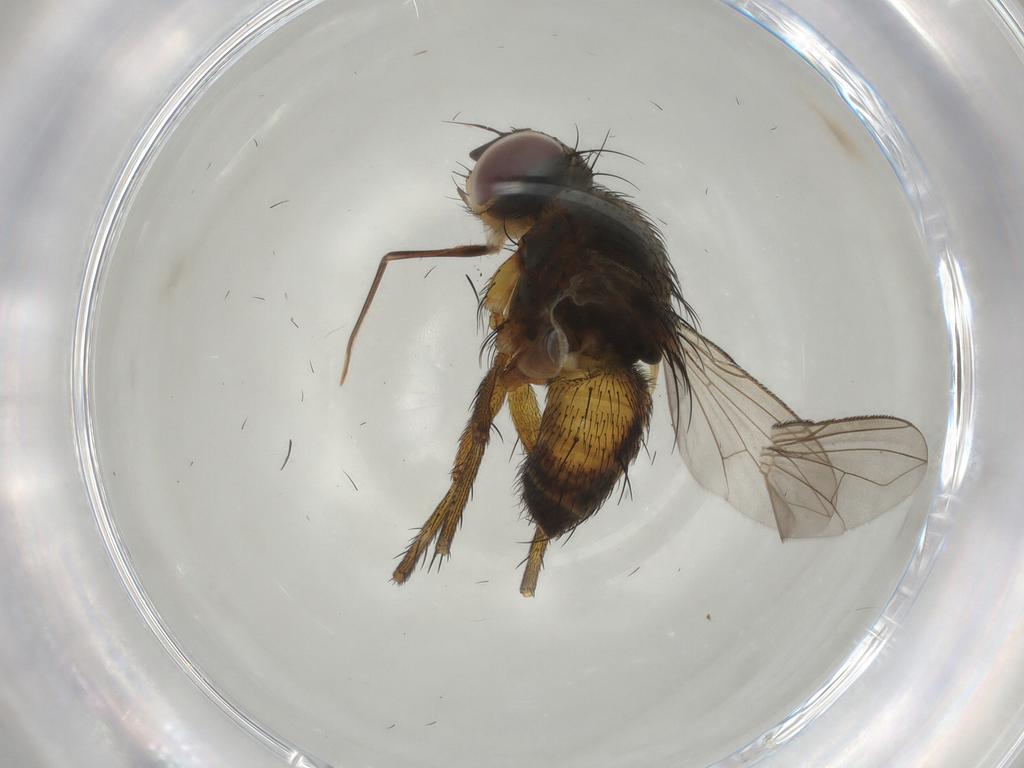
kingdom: Animalia
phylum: Arthropoda
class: Insecta
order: Diptera
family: Tachinidae
